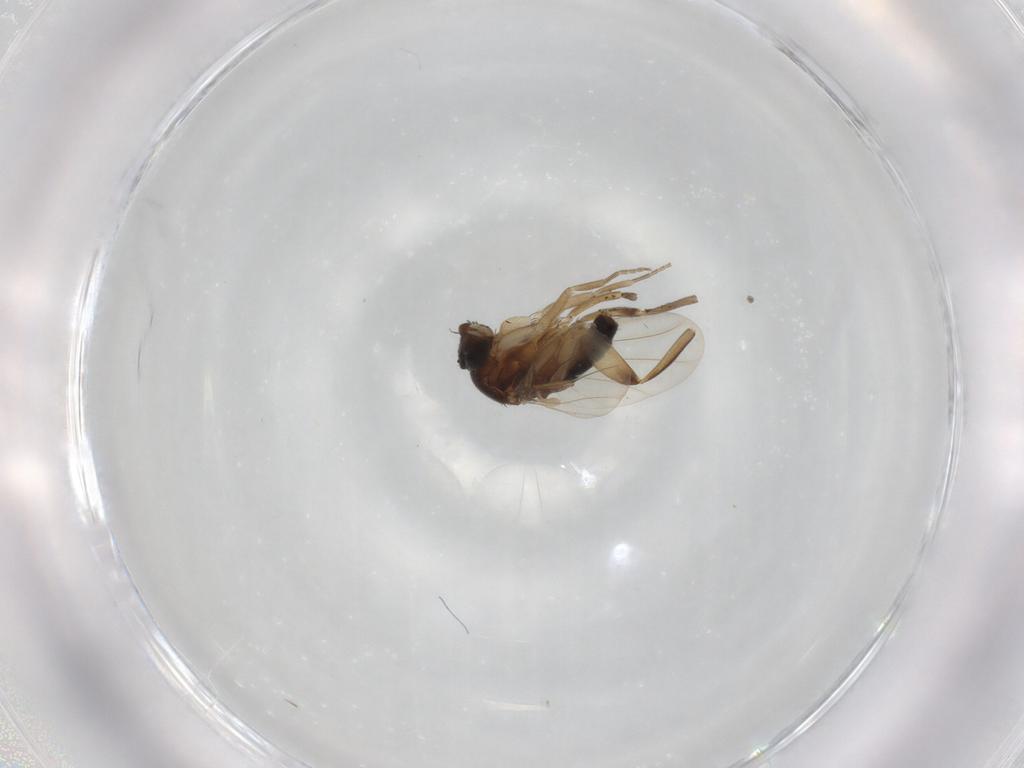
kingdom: Animalia
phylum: Arthropoda
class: Insecta
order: Diptera
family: Phoridae
